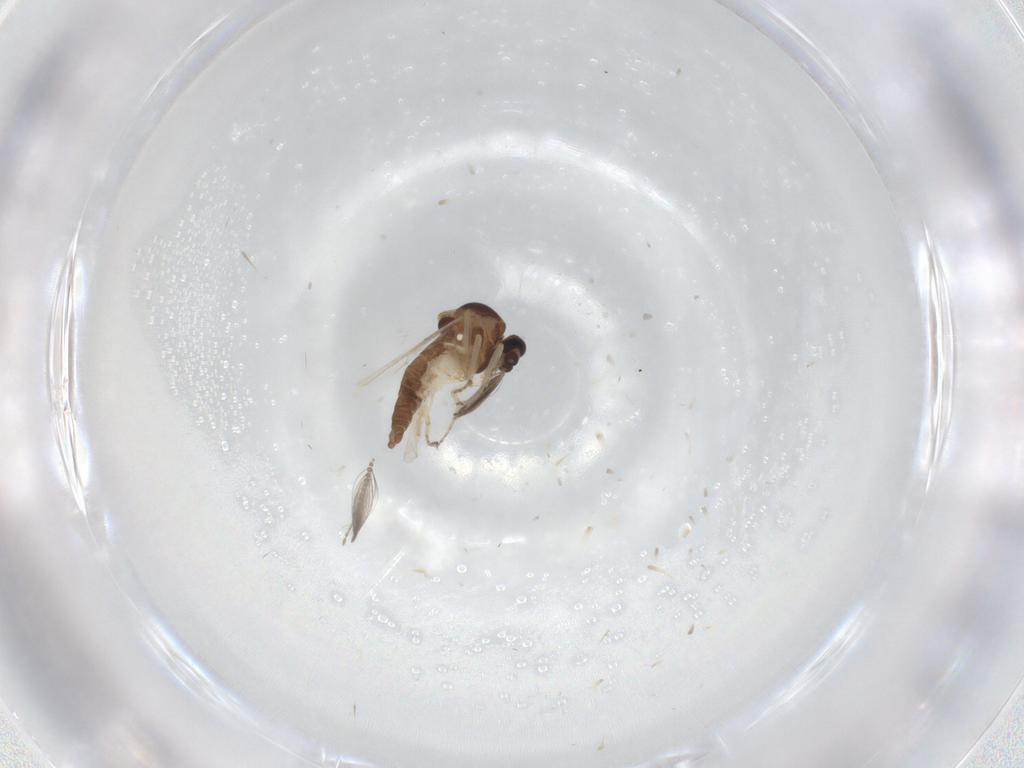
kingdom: Animalia
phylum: Arthropoda
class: Insecta
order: Diptera
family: Ceratopogonidae
